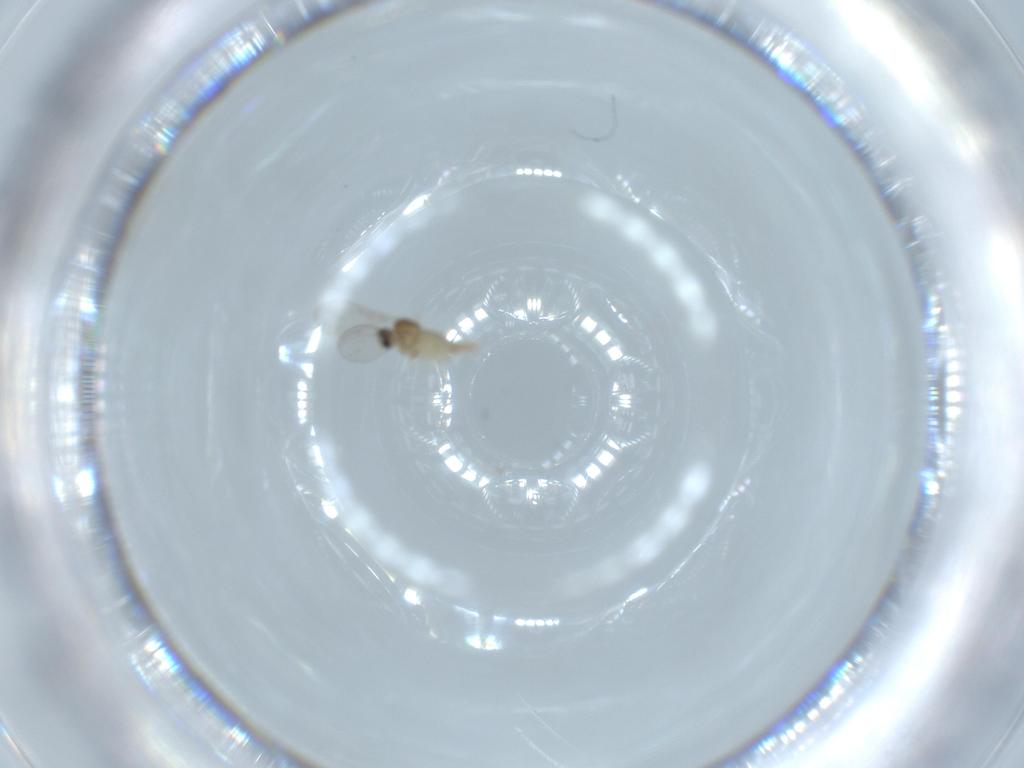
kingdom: Animalia
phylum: Arthropoda
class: Insecta
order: Diptera
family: Cecidomyiidae
